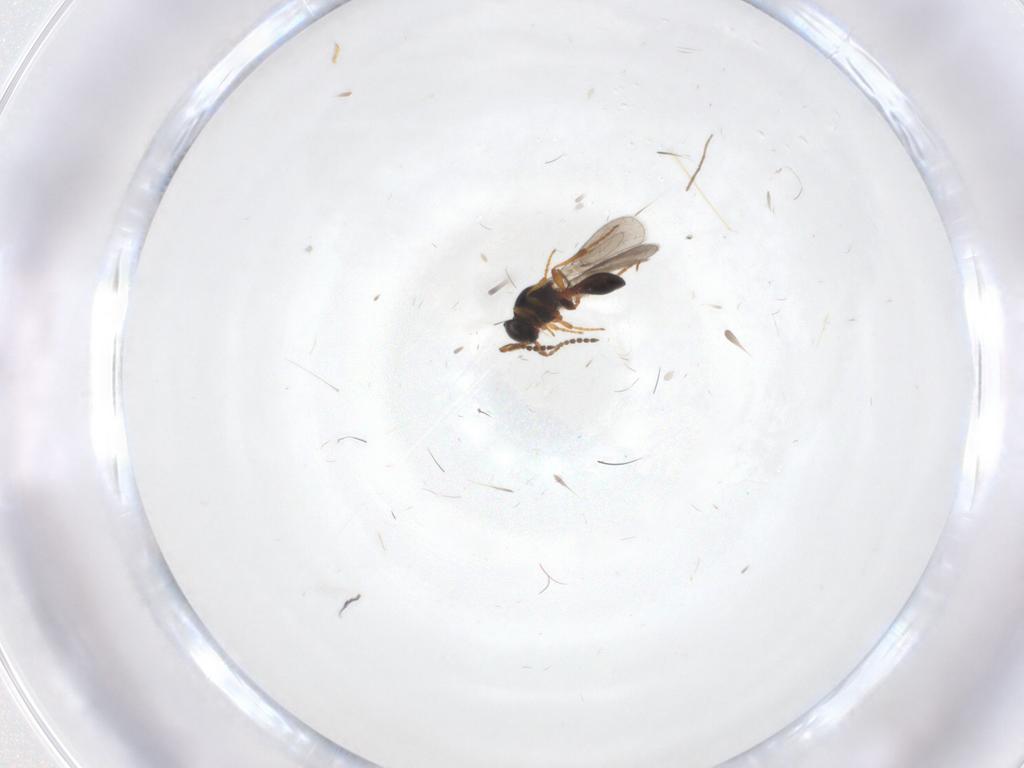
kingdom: Animalia
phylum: Arthropoda
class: Insecta
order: Hymenoptera
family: Platygastridae
